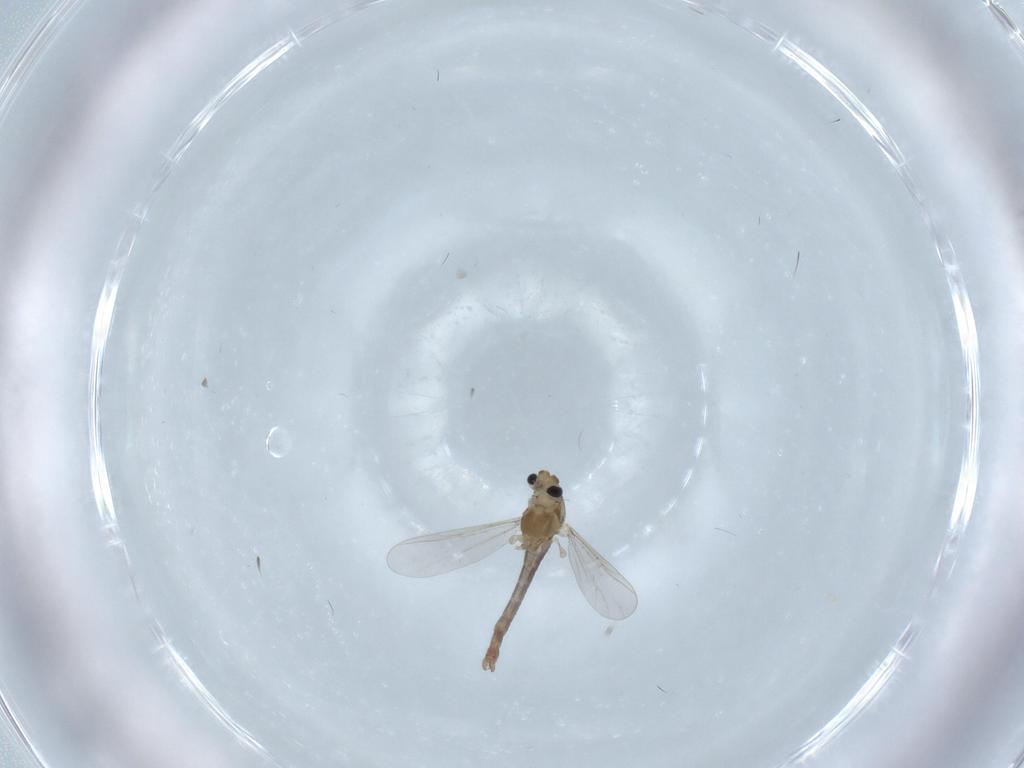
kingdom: Animalia
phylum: Arthropoda
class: Insecta
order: Diptera
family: Chironomidae
